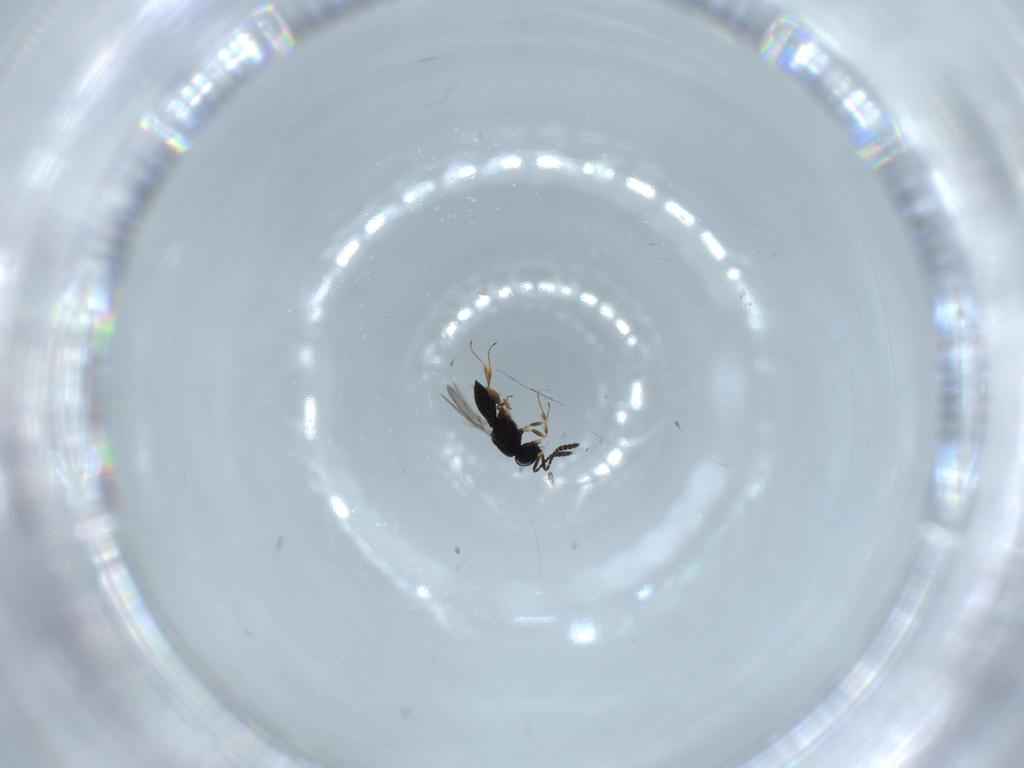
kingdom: Animalia
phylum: Arthropoda
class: Insecta
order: Hymenoptera
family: Scelionidae
